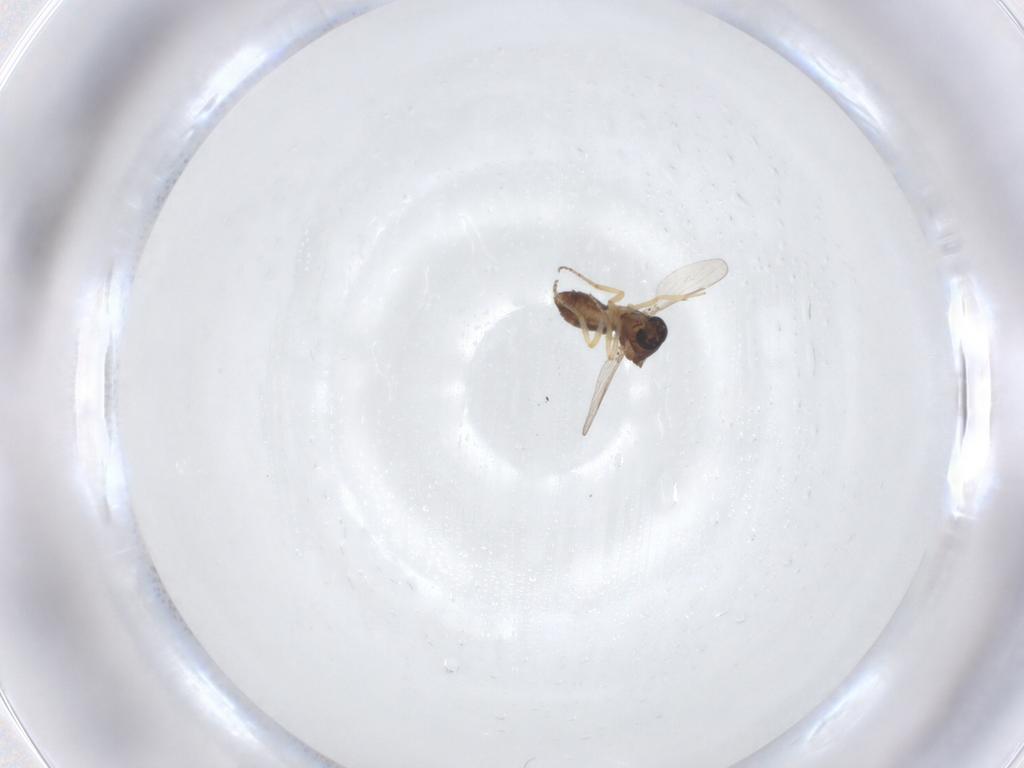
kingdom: Animalia
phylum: Arthropoda
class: Insecta
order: Diptera
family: Ceratopogonidae
